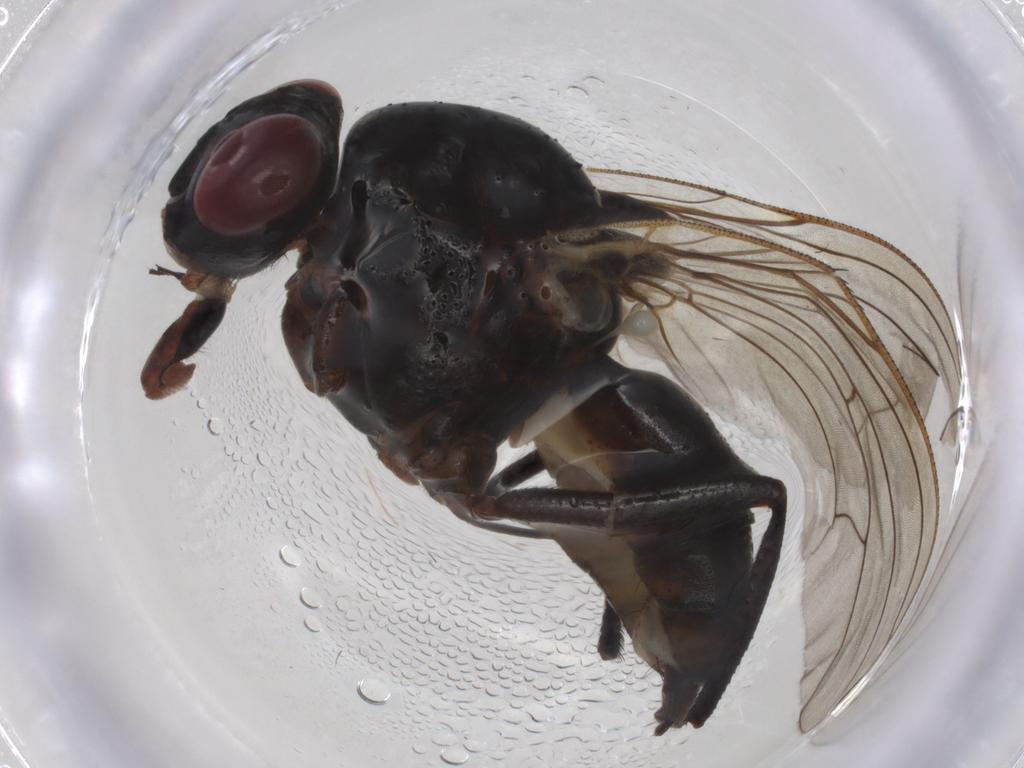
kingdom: Animalia
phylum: Arthropoda
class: Insecta
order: Diptera
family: Anthomyiidae
